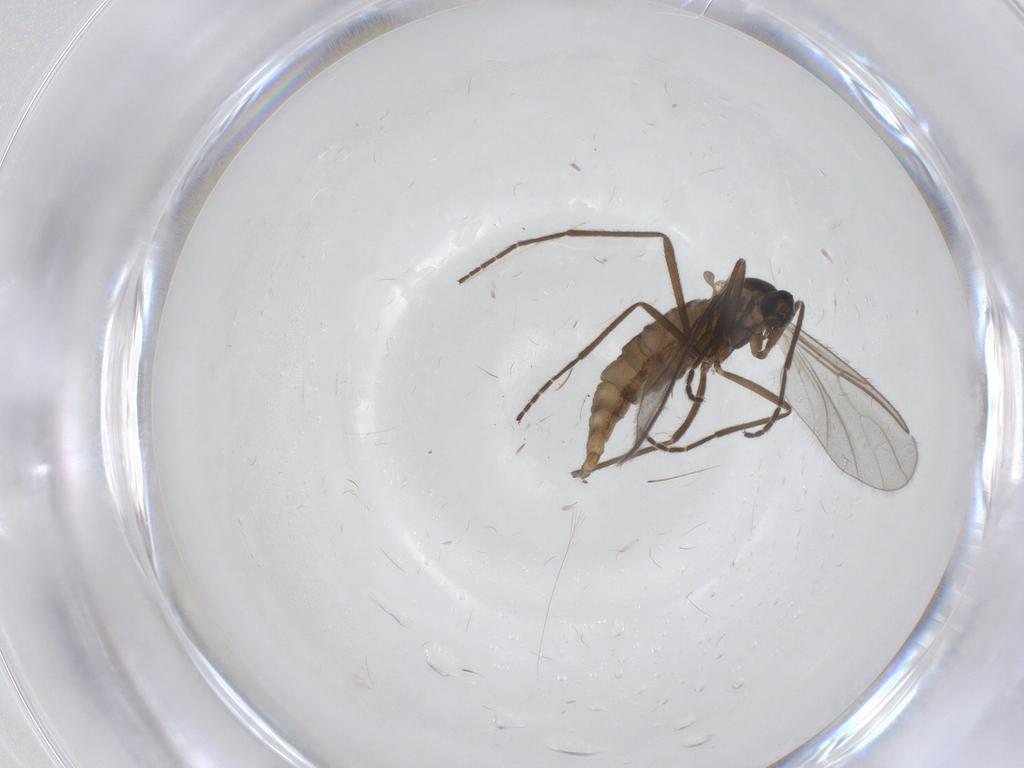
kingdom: Animalia
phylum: Arthropoda
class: Insecta
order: Diptera
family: Cecidomyiidae
